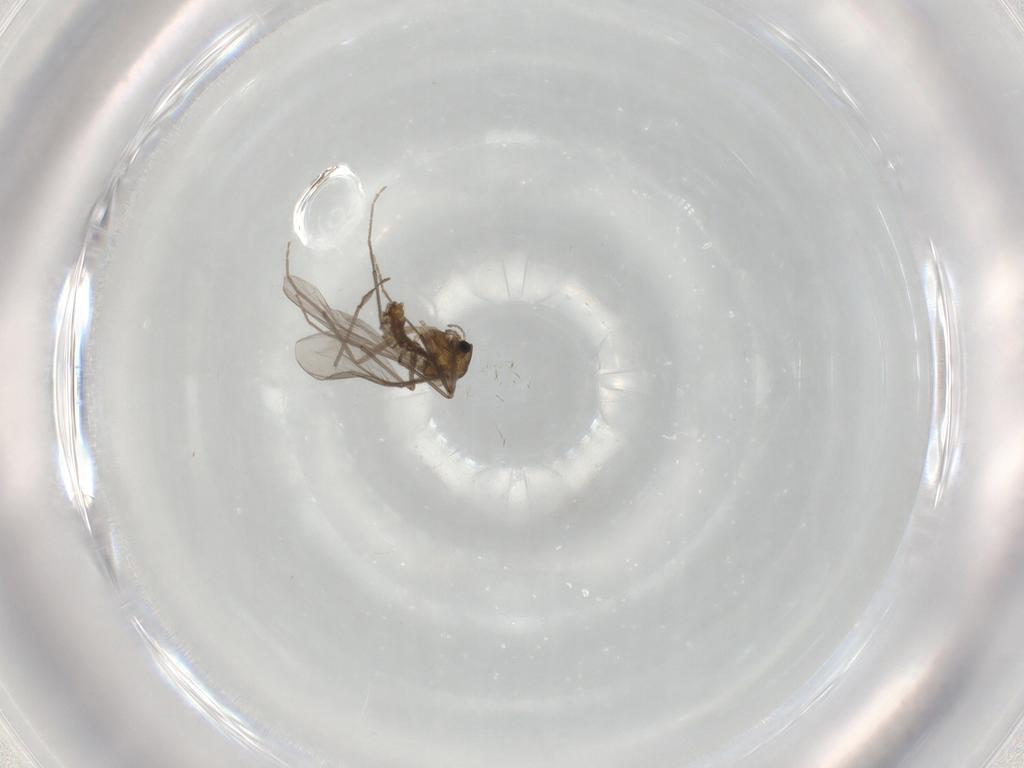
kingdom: Animalia
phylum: Arthropoda
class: Insecta
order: Diptera
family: Chironomidae
